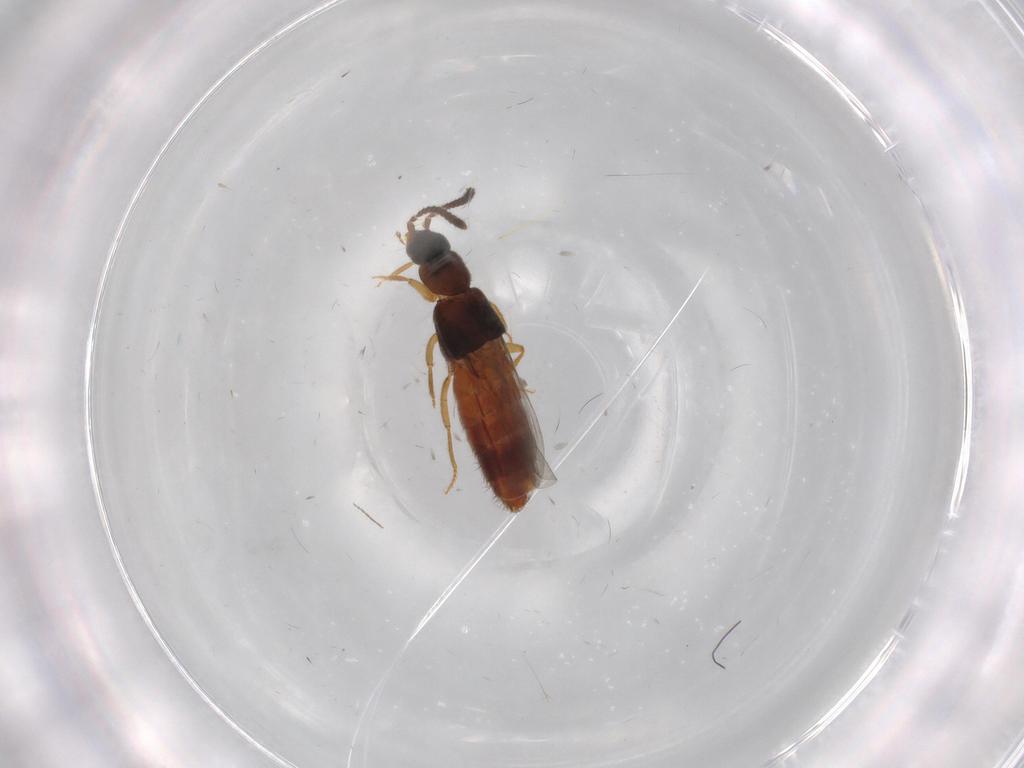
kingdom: Animalia
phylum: Arthropoda
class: Insecta
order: Coleoptera
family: Staphylinidae
